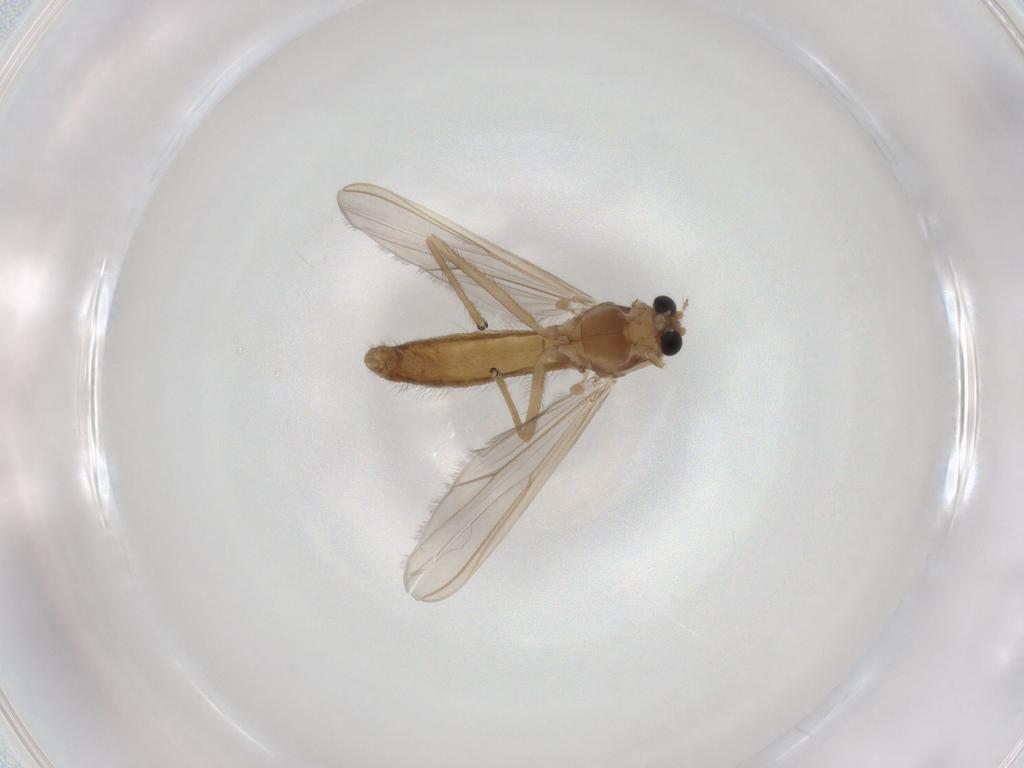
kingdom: Animalia
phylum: Arthropoda
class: Insecta
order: Diptera
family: Chironomidae
